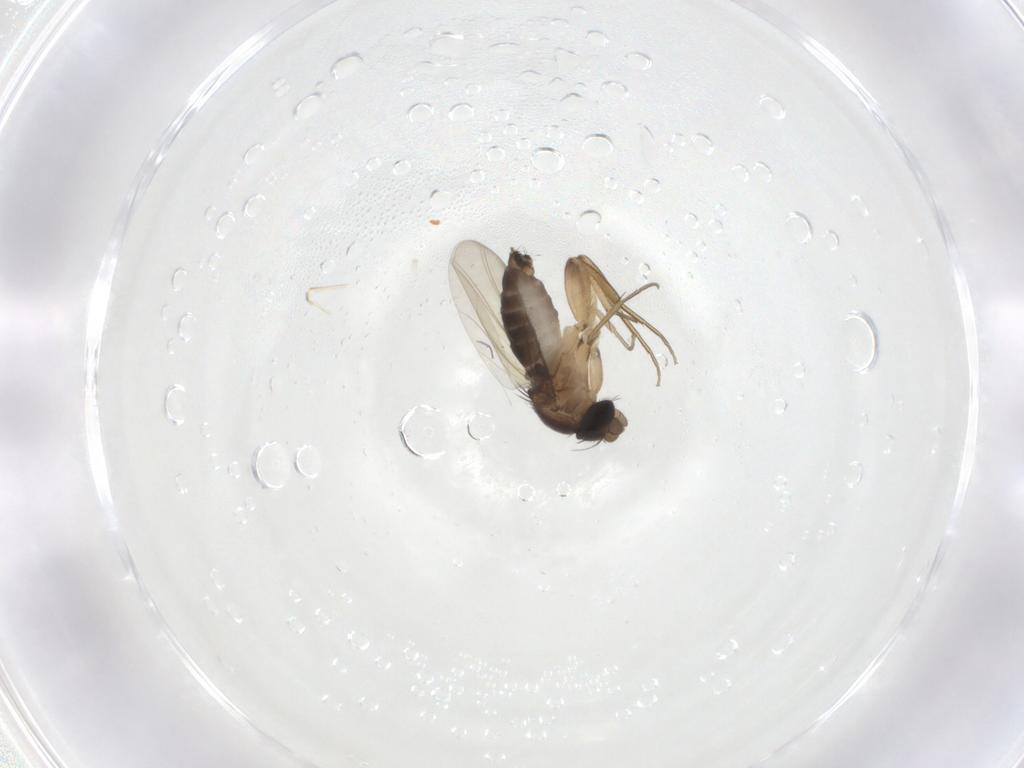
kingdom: Animalia
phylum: Arthropoda
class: Insecta
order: Diptera
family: Phoridae
